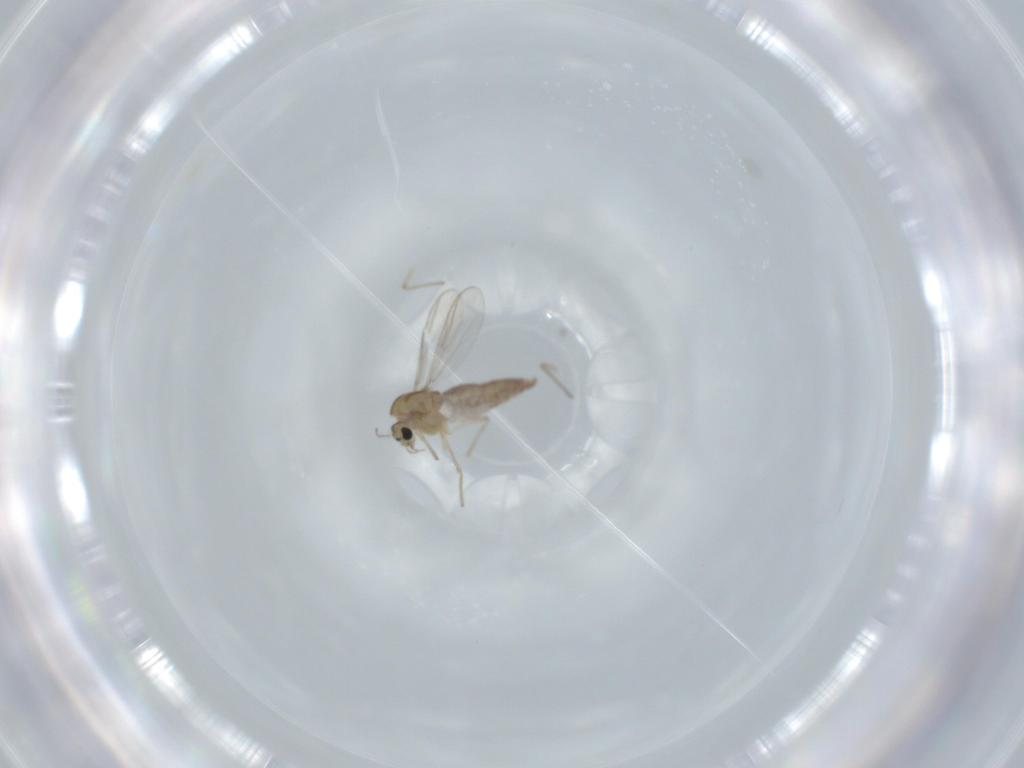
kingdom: Animalia
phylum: Arthropoda
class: Insecta
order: Diptera
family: Chironomidae
